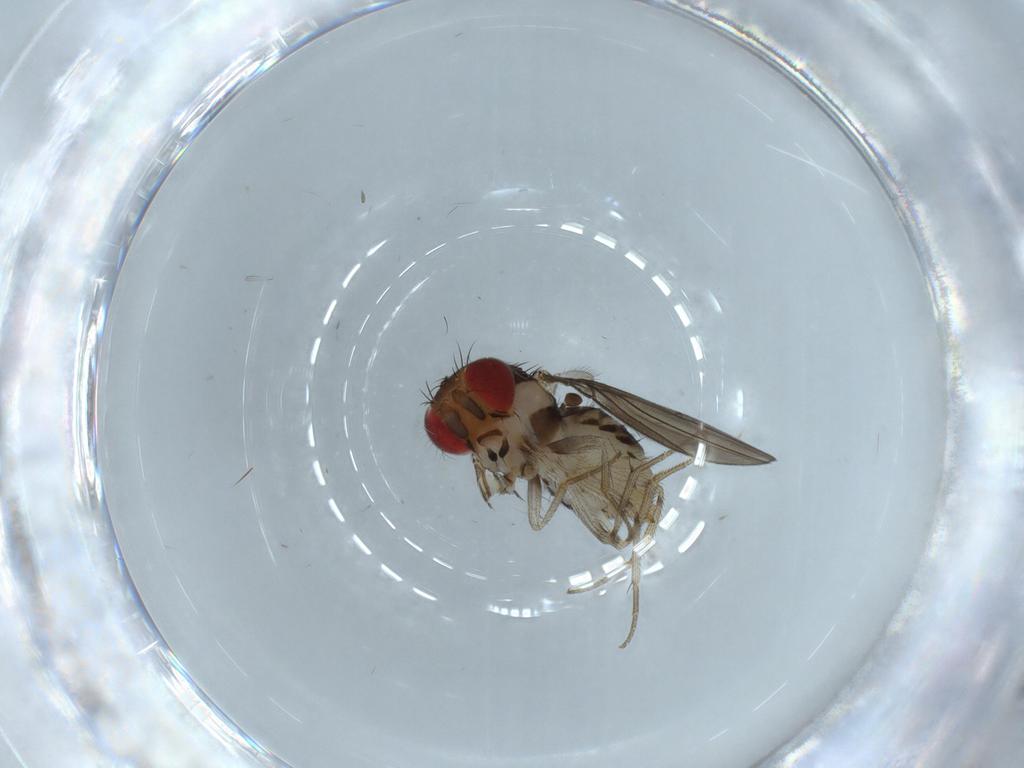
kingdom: Animalia
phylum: Arthropoda
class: Insecta
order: Diptera
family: Drosophilidae
